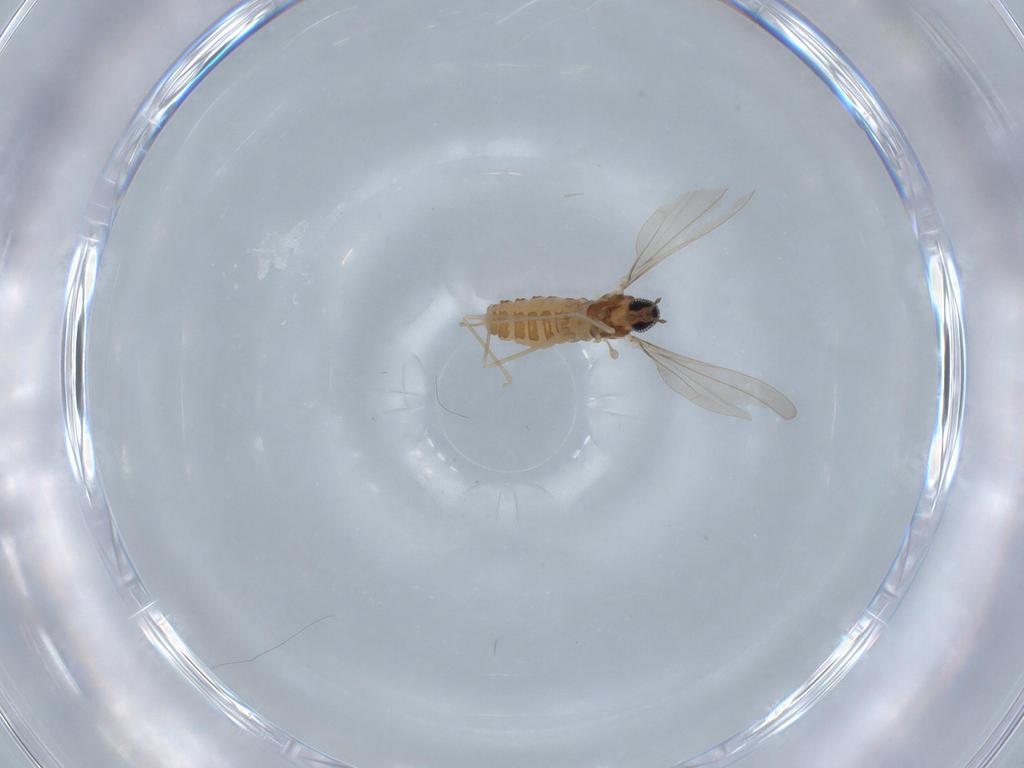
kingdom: Animalia
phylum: Arthropoda
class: Insecta
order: Diptera
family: Cecidomyiidae
